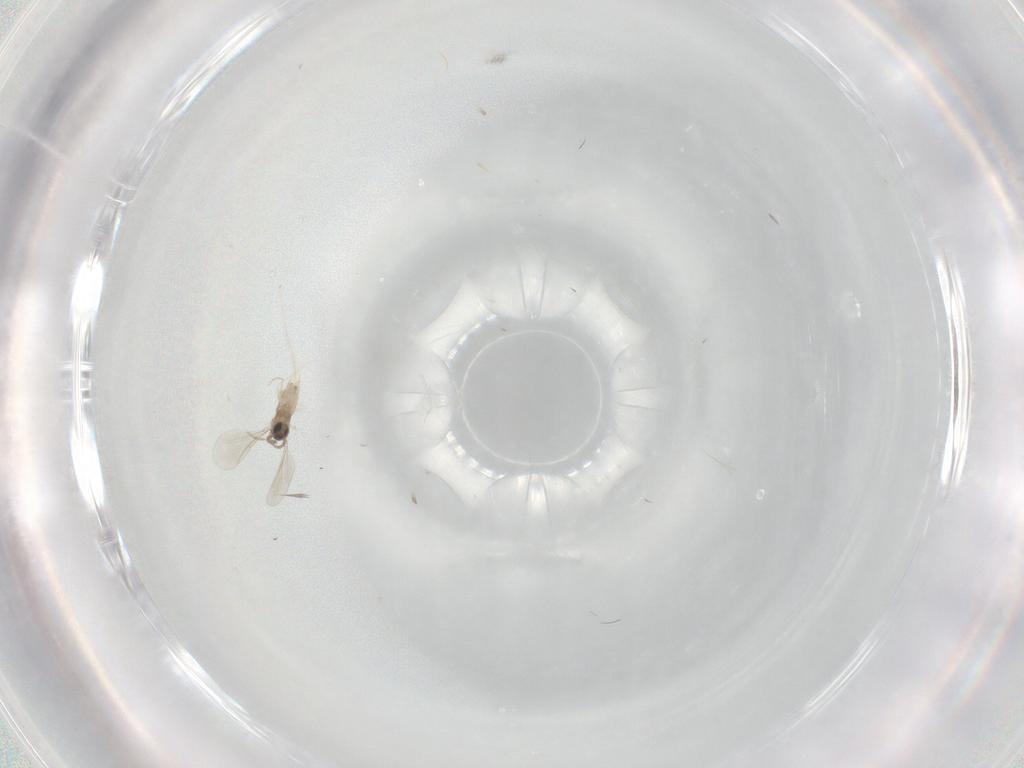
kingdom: Animalia
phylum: Arthropoda
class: Insecta
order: Diptera
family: Cecidomyiidae
